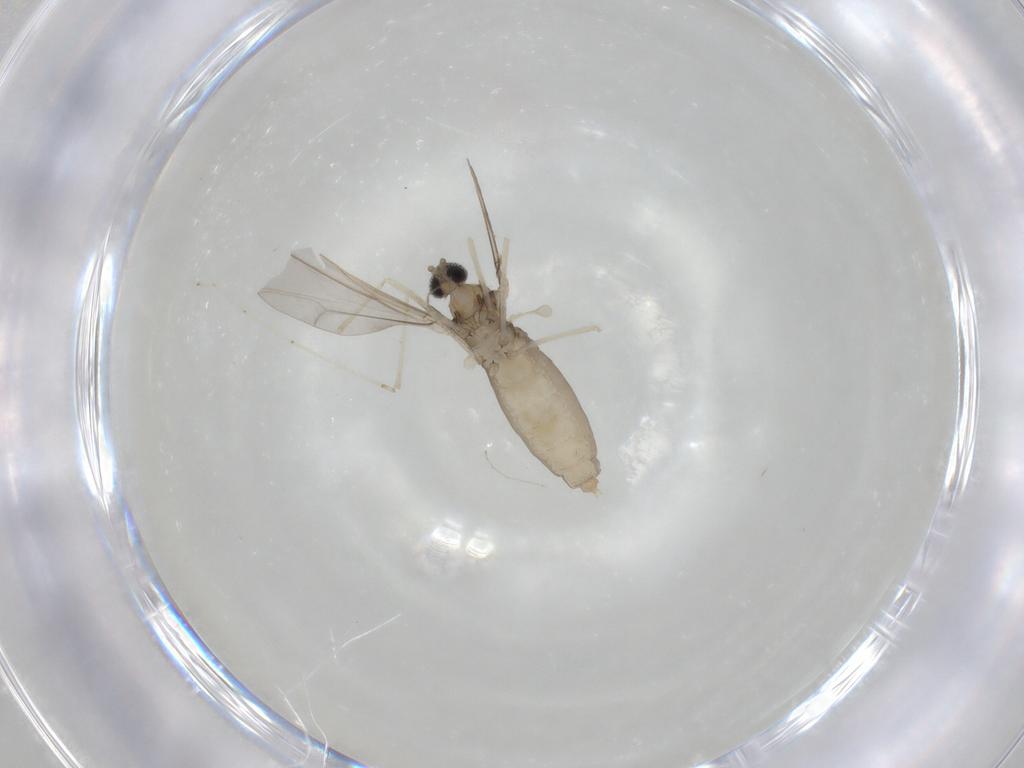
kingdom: Animalia
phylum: Arthropoda
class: Insecta
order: Diptera
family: Cecidomyiidae
